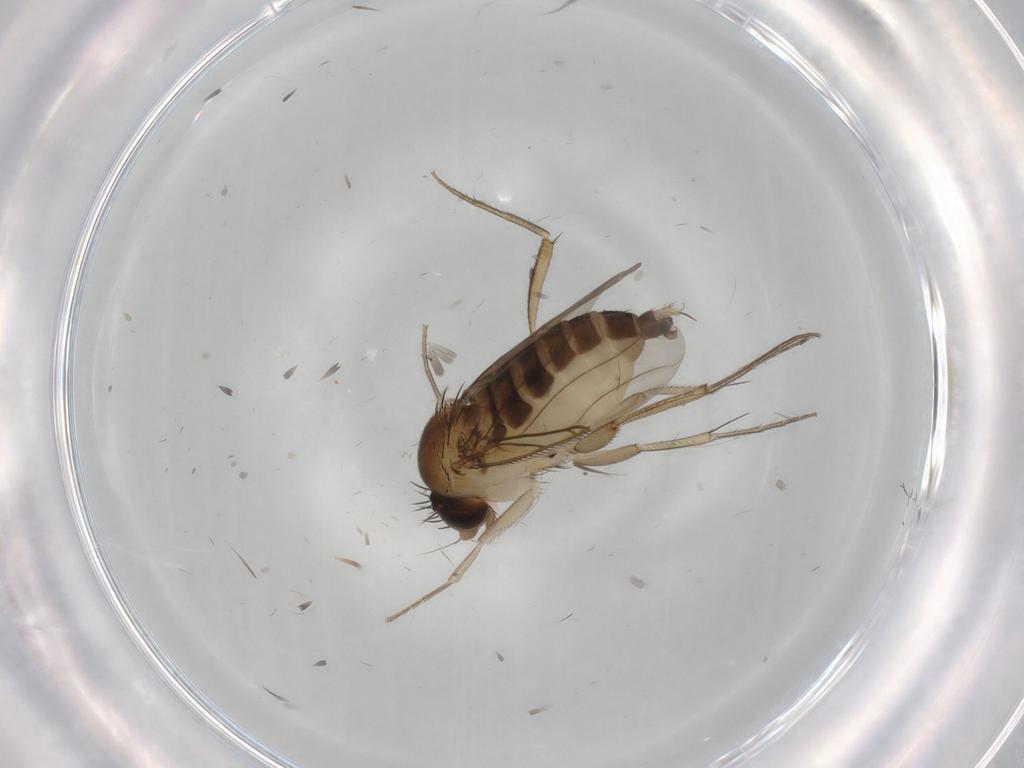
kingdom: Animalia
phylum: Arthropoda
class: Insecta
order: Diptera
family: Phoridae
